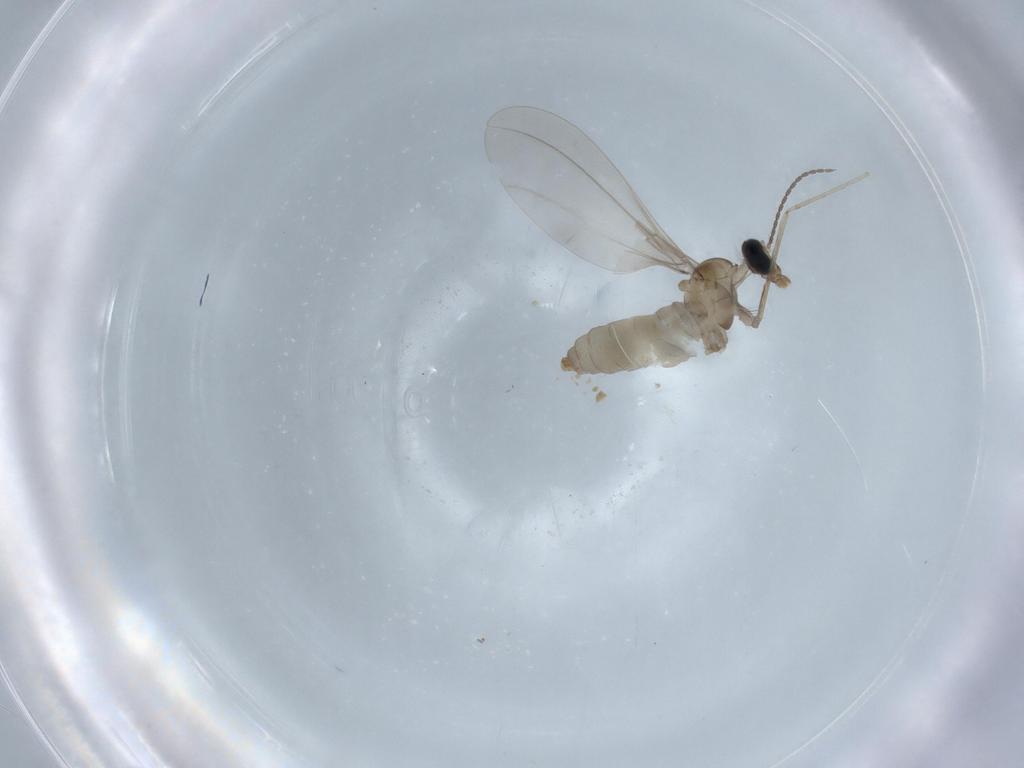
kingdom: Animalia
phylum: Arthropoda
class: Insecta
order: Diptera
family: Cecidomyiidae
